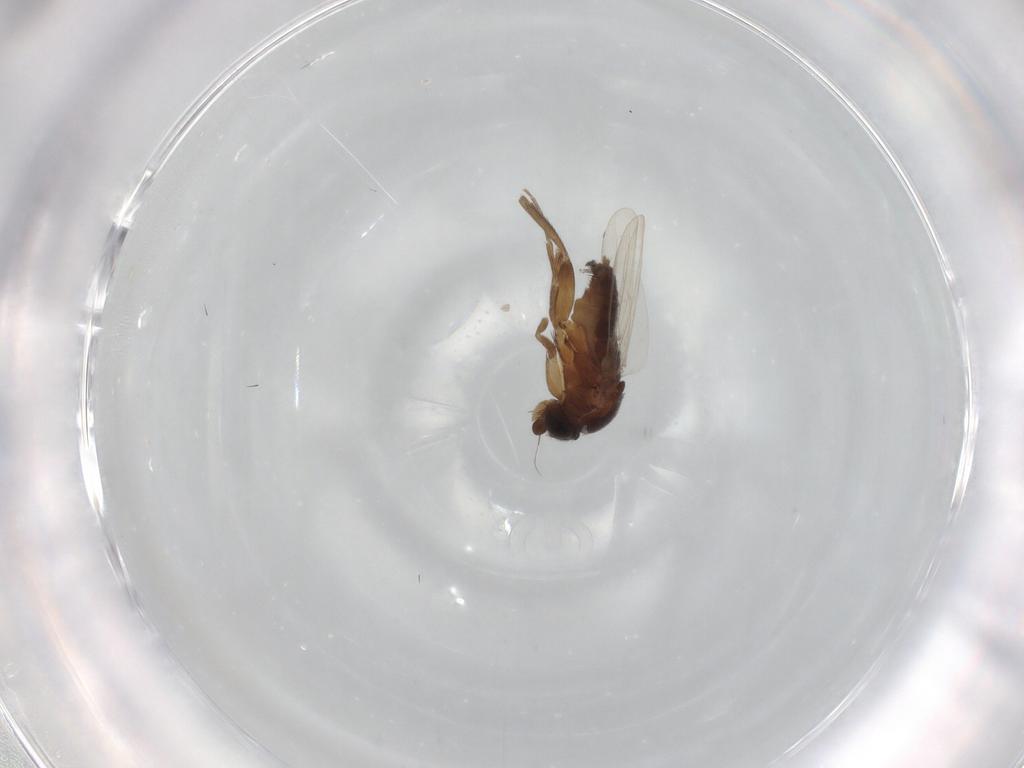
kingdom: Animalia
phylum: Arthropoda
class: Insecta
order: Diptera
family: Phoridae
